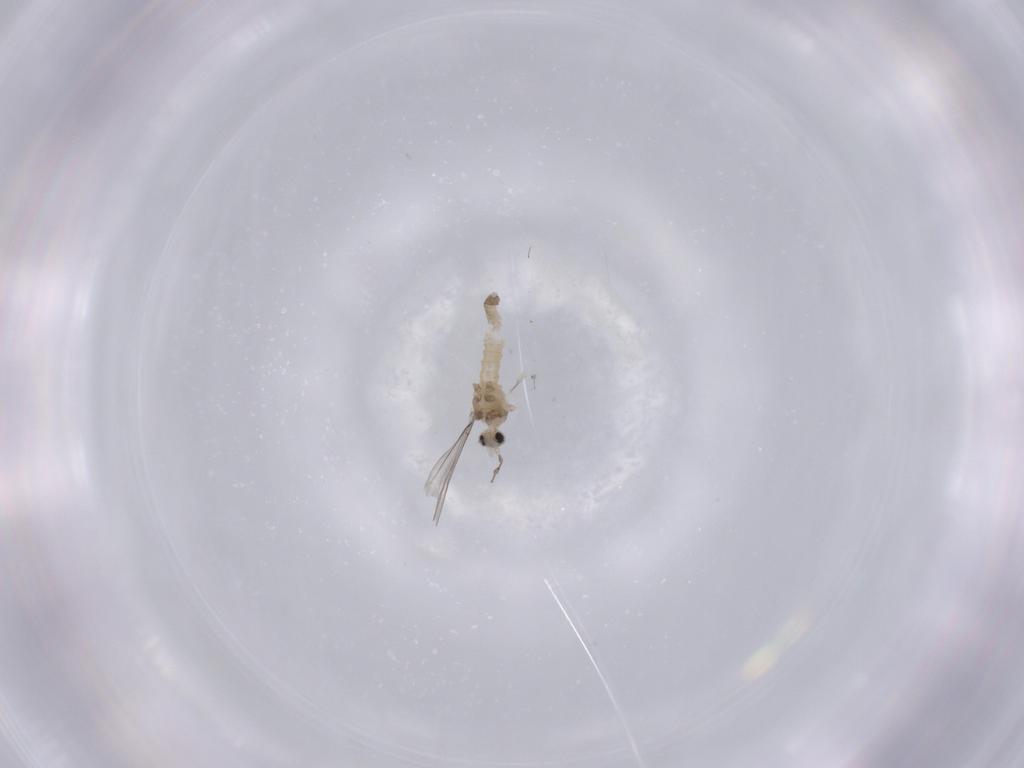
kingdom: Animalia
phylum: Arthropoda
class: Insecta
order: Diptera
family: Cecidomyiidae
